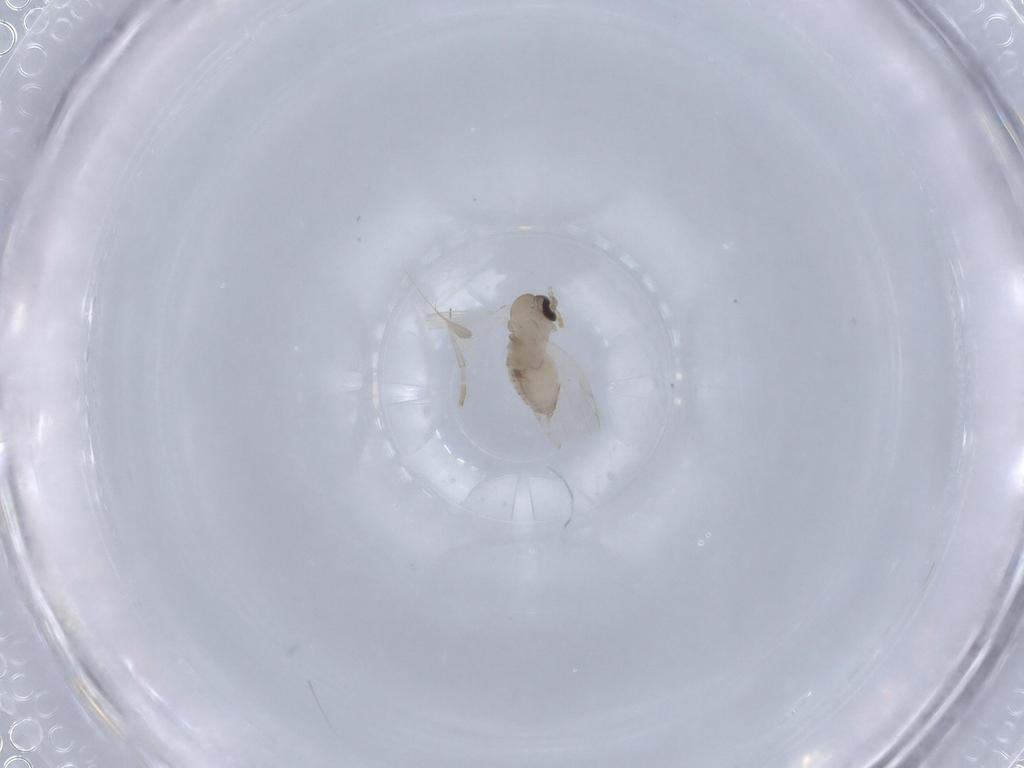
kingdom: Animalia
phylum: Arthropoda
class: Insecta
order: Diptera
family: Psychodidae
